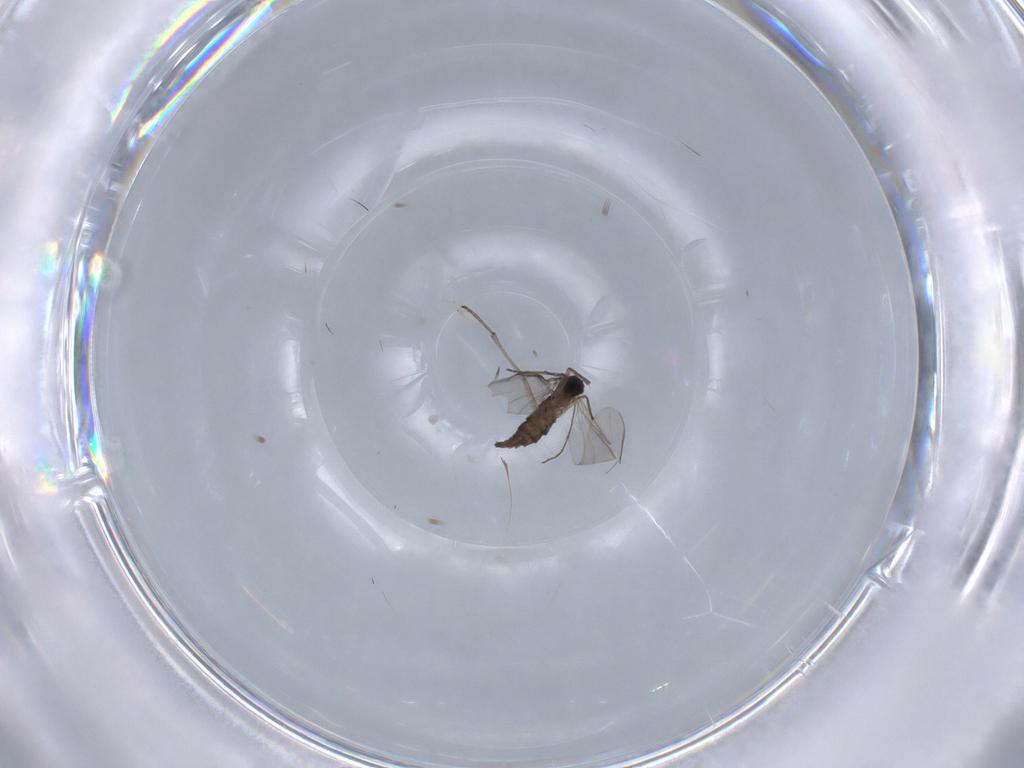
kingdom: Animalia
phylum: Arthropoda
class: Insecta
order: Diptera
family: Sciaridae
